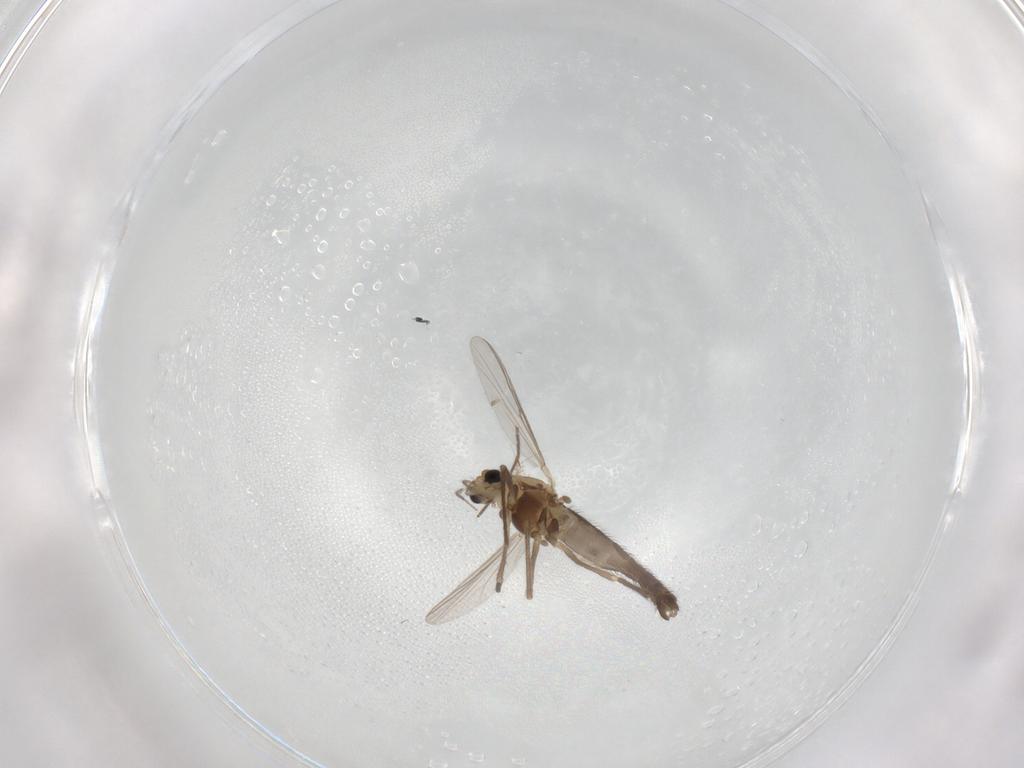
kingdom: Animalia
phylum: Arthropoda
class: Insecta
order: Diptera
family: Chironomidae
